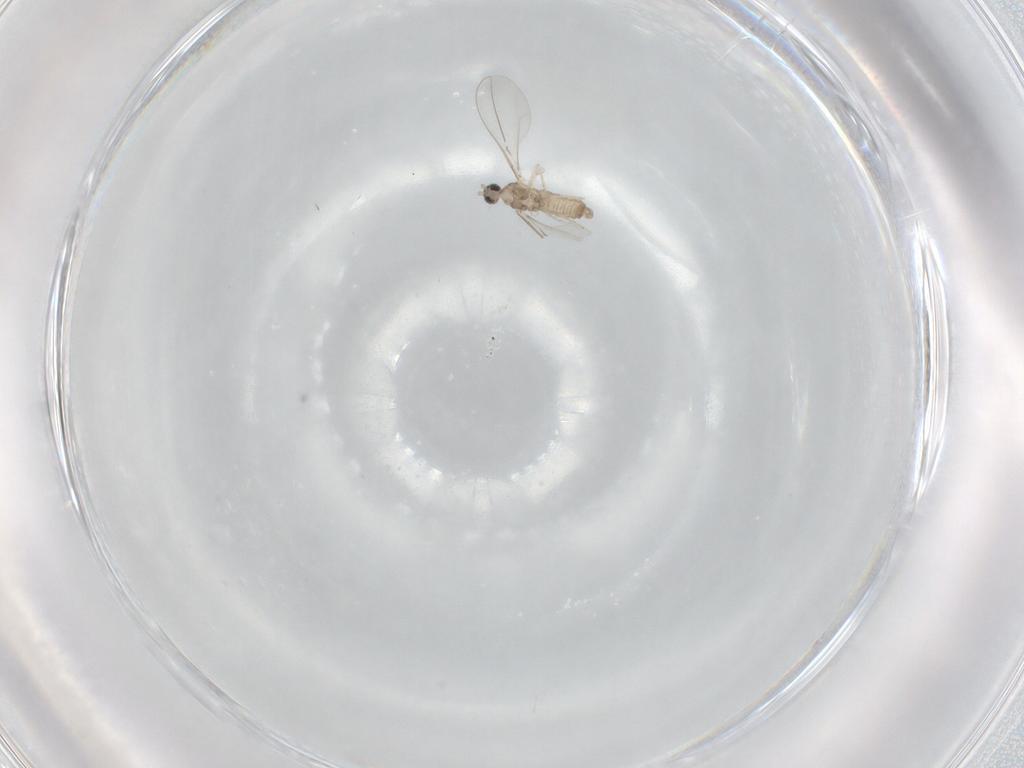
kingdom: Animalia
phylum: Arthropoda
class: Insecta
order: Diptera
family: Cecidomyiidae
